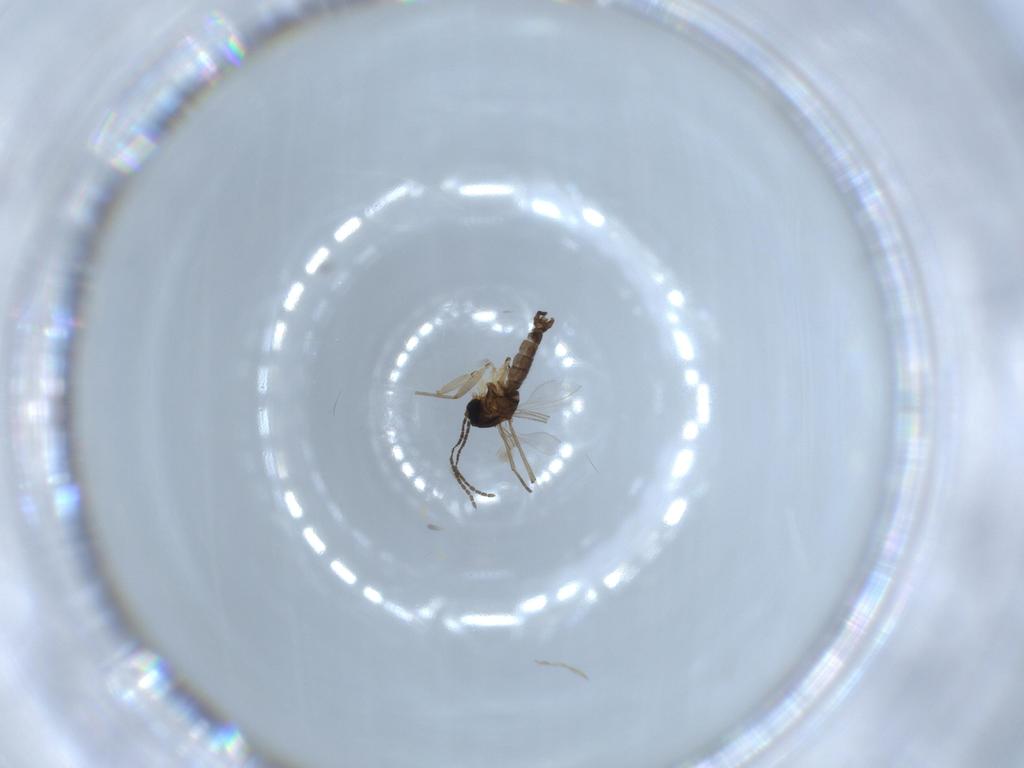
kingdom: Animalia
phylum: Arthropoda
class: Insecta
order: Diptera
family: Sciaridae
